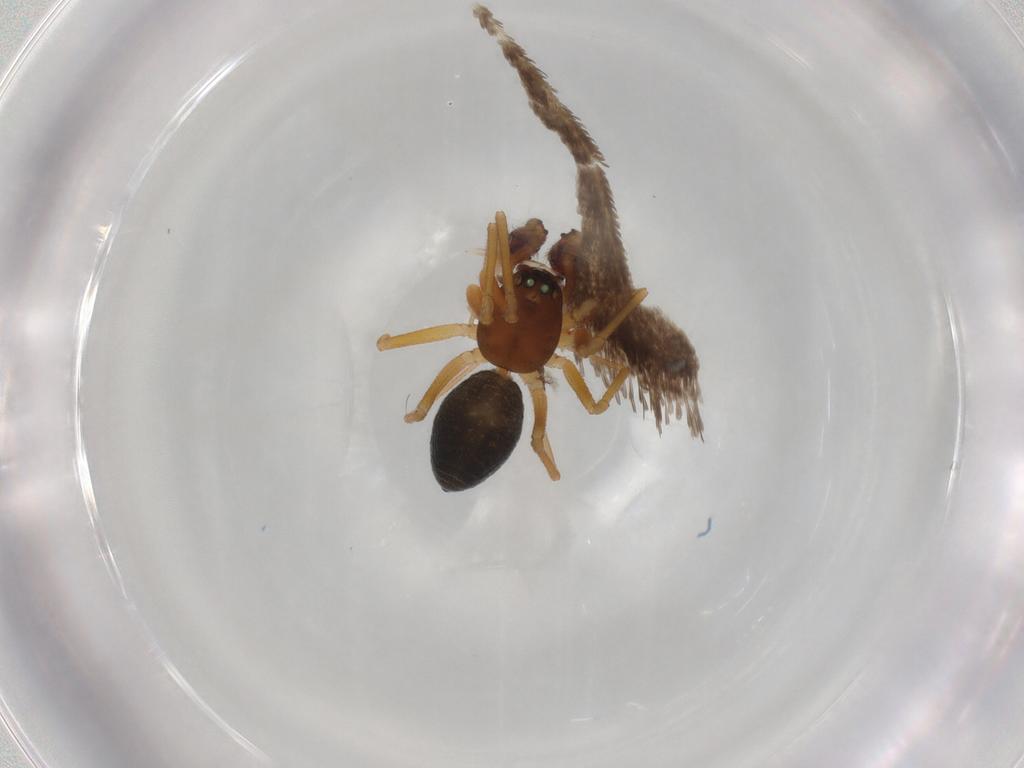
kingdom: Animalia
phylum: Arthropoda
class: Arachnida
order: Araneae
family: Linyphiidae
